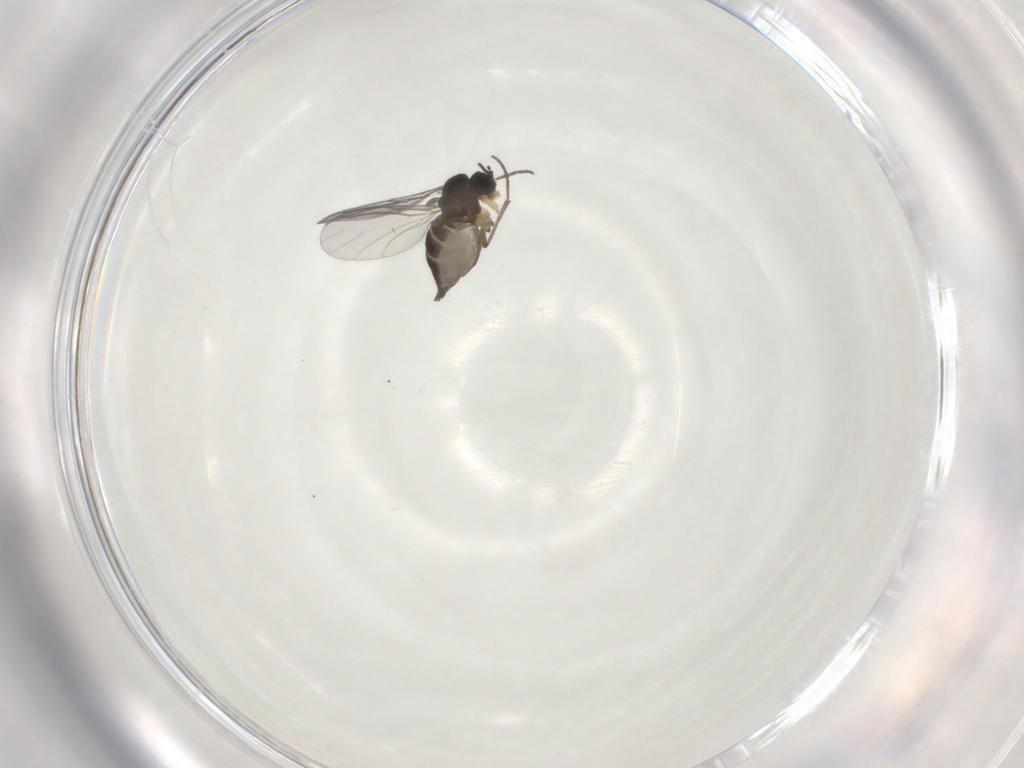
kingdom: Animalia
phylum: Arthropoda
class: Insecta
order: Diptera
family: Sciaridae
